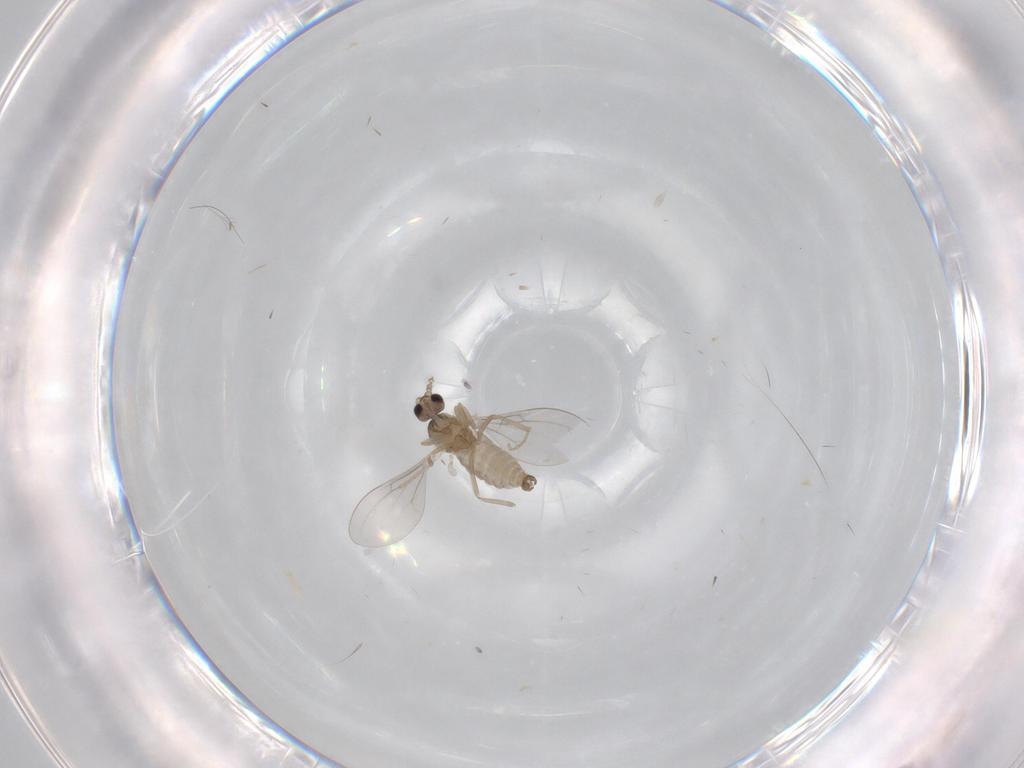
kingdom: Animalia
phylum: Arthropoda
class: Insecta
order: Diptera
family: Cecidomyiidae
